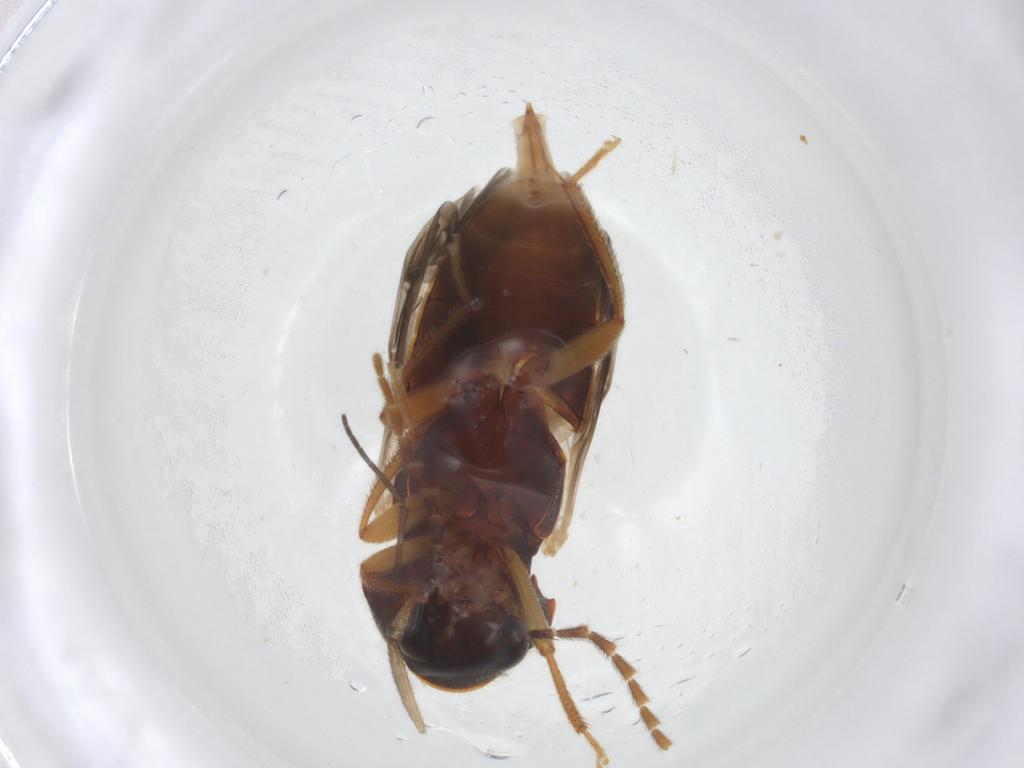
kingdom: Animalia
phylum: Arthropoda
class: Insecta
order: Coleoptera
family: Ptilodactylidae
